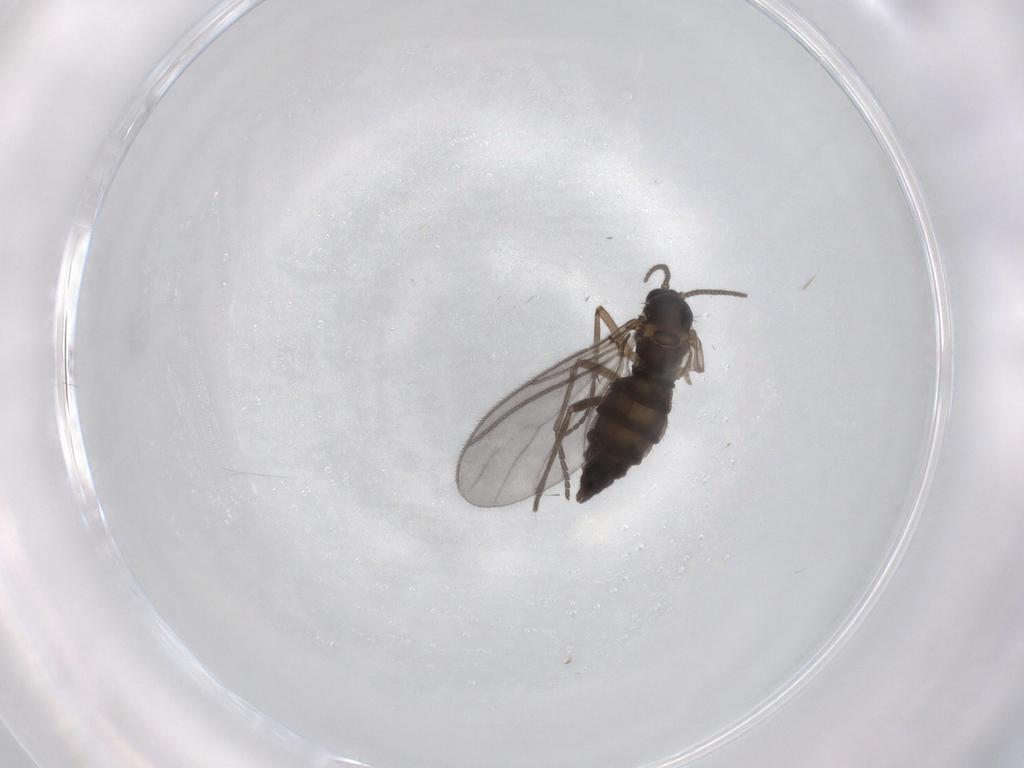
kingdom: Animalia
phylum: Arthropoda
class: Insecta
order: Diptera
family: Sciaridae
